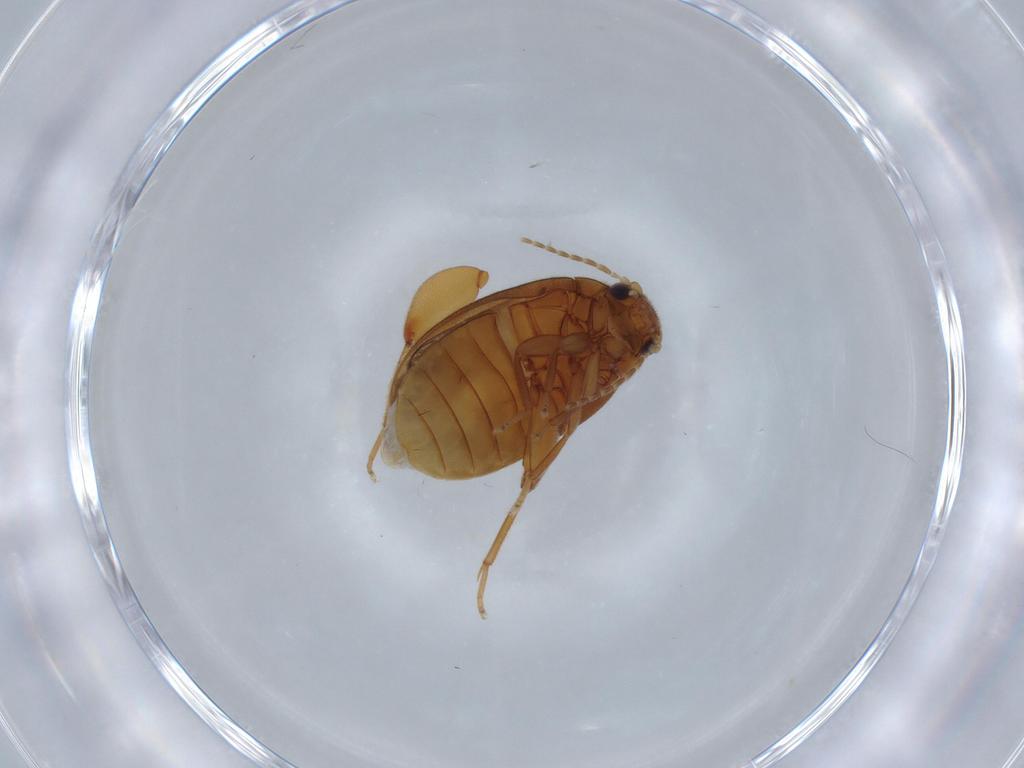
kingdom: Animalia
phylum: Arthropoda
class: Insecta
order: Coleoptera
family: Scirtidae
